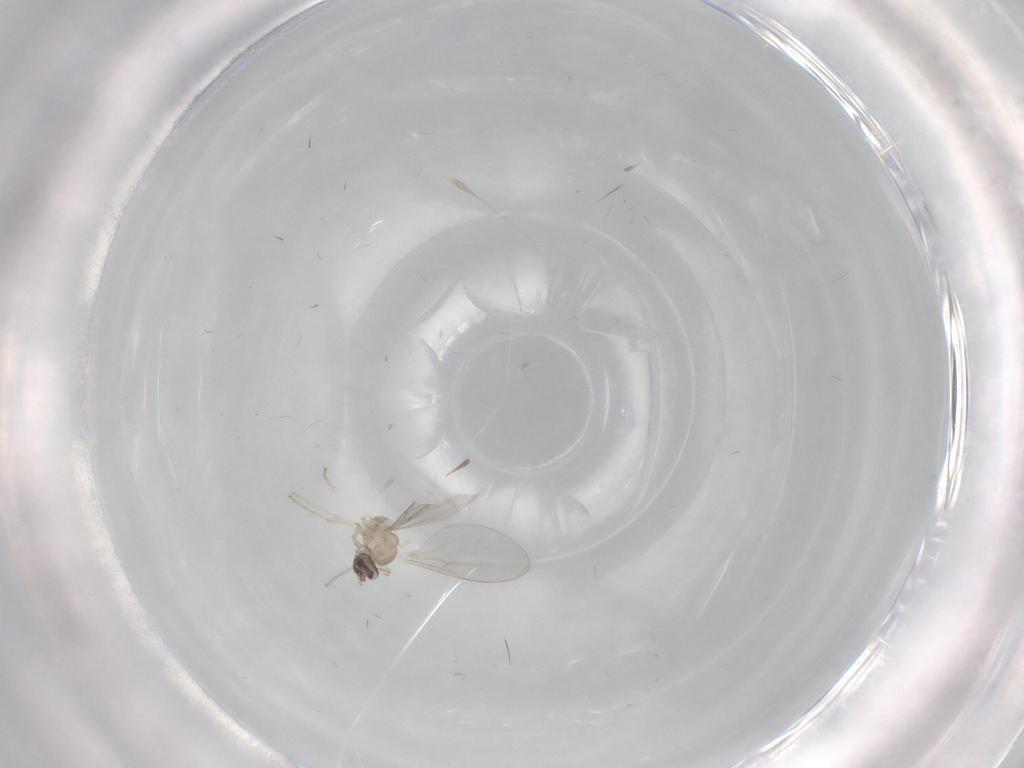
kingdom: Animalia
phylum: Arthropoda
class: Insecta
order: Diptera
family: Cecidomyiidae
